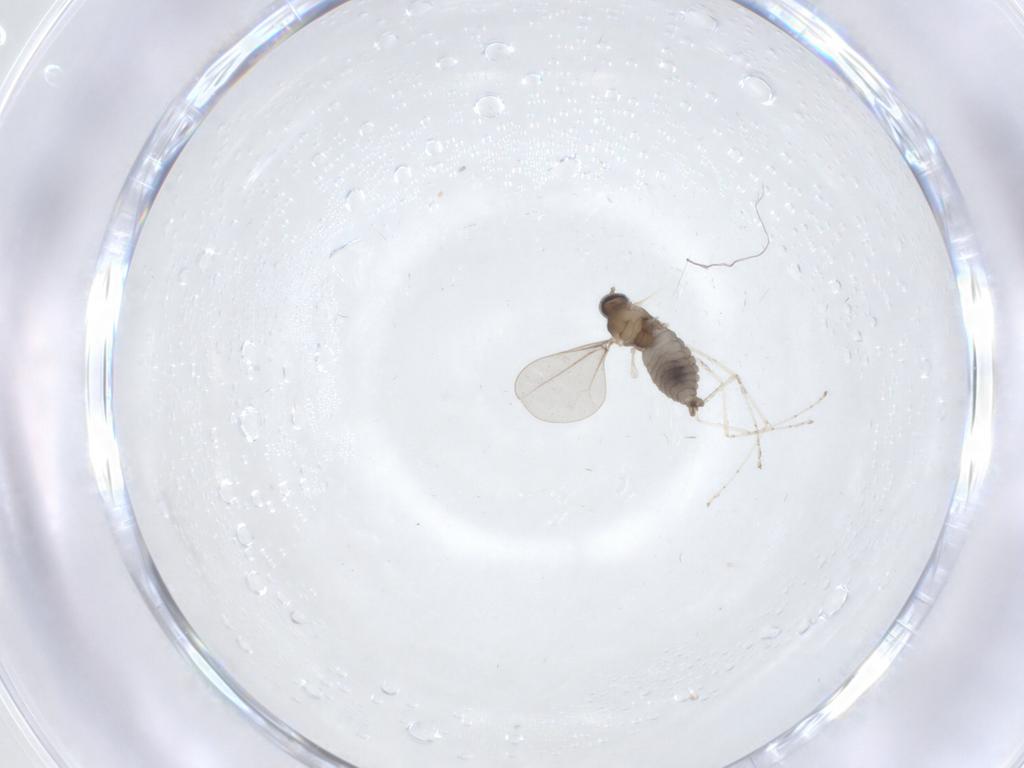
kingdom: Animalia
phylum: Arthropoda
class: Insecta
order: Diptera
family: Cecidomyiidae
